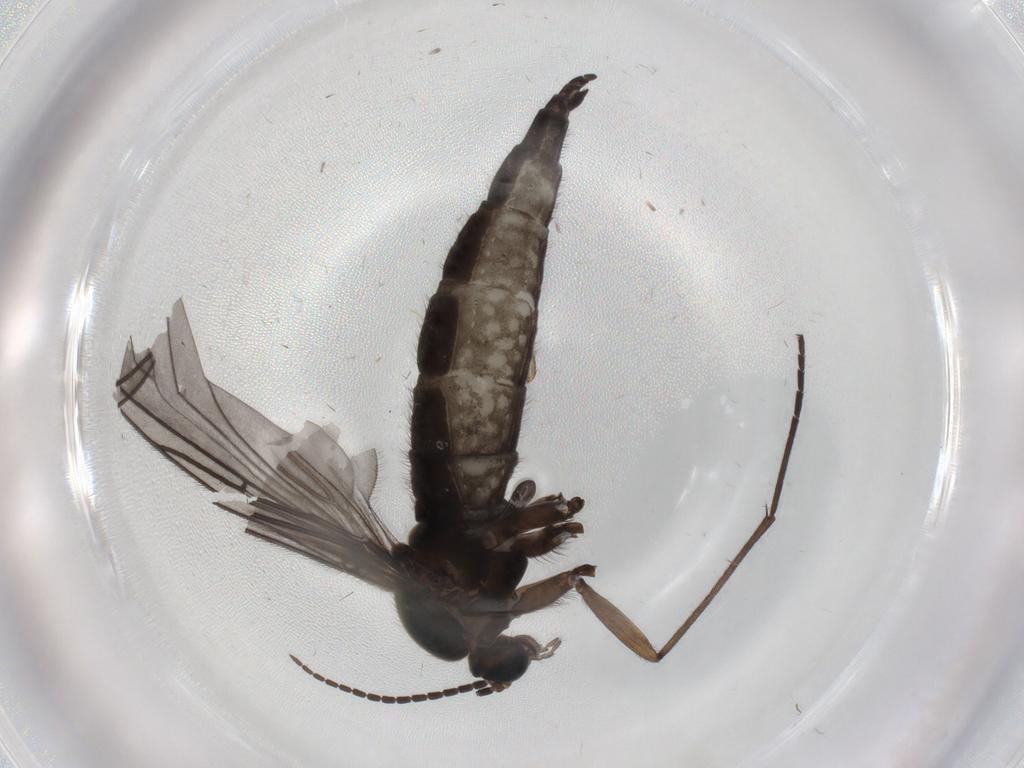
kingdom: Animalia
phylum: Arthropoda
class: Insecta
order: Diptera
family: Sciaridae
